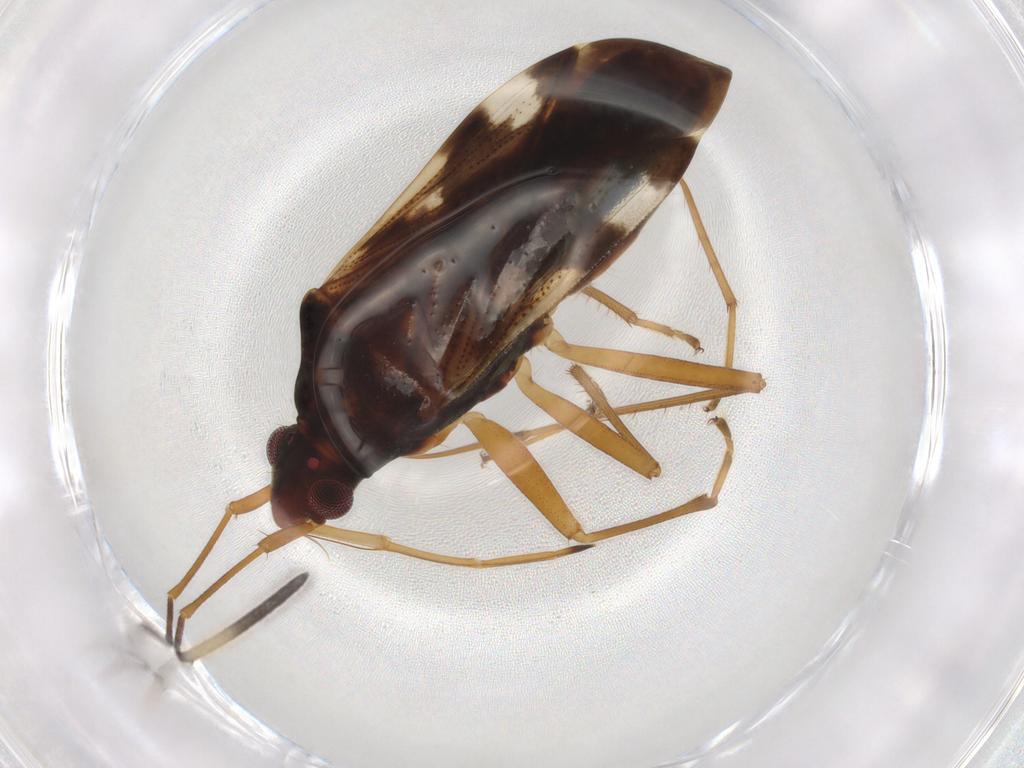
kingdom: Animalia
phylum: Arthropoda
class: Insecta
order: Hemiptera
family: Rhyparochromidae
